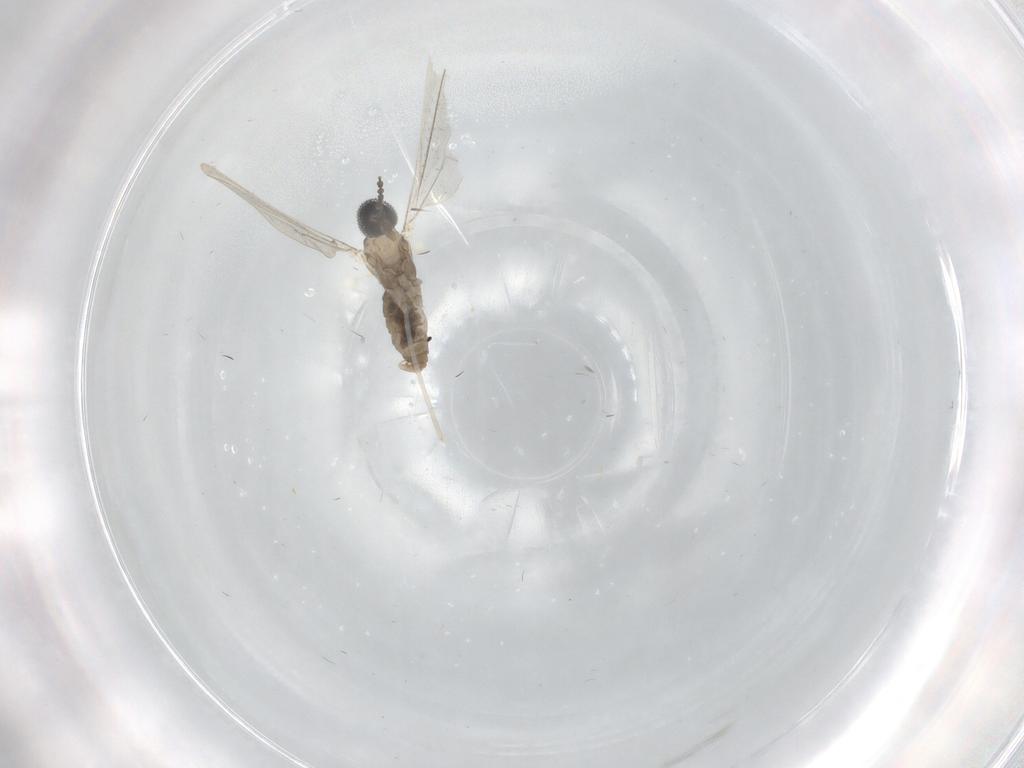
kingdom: Animalia
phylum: Arthropoda
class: Insecta
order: Diptera
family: Cecidomyiidae
